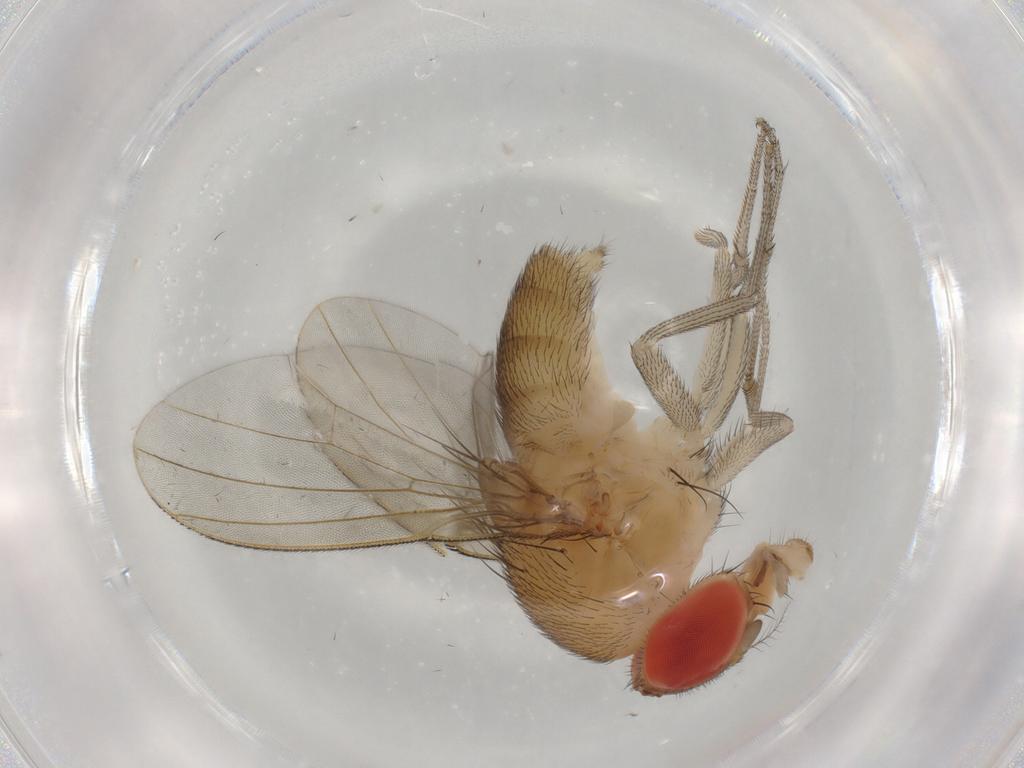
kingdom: Animalia
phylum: Arthropoda
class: Insecta
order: Diptera
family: Drosophilidae
